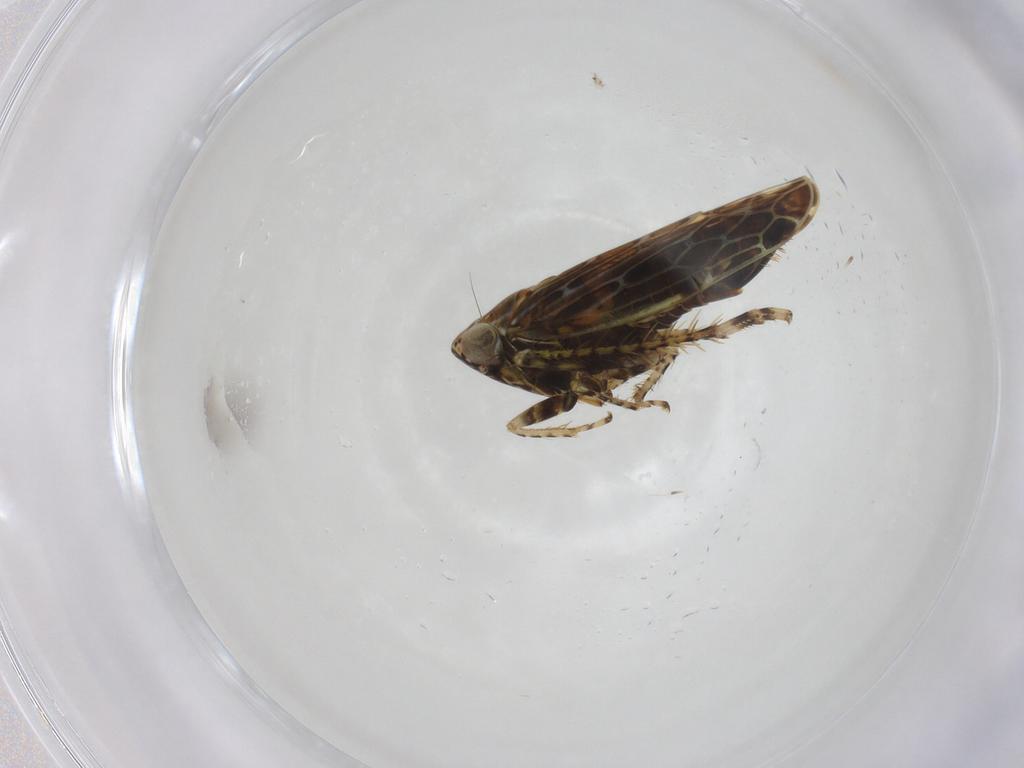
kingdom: Animalia
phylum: Arthropoda
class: Insecta
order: Hemiptera
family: Cicadellidae
